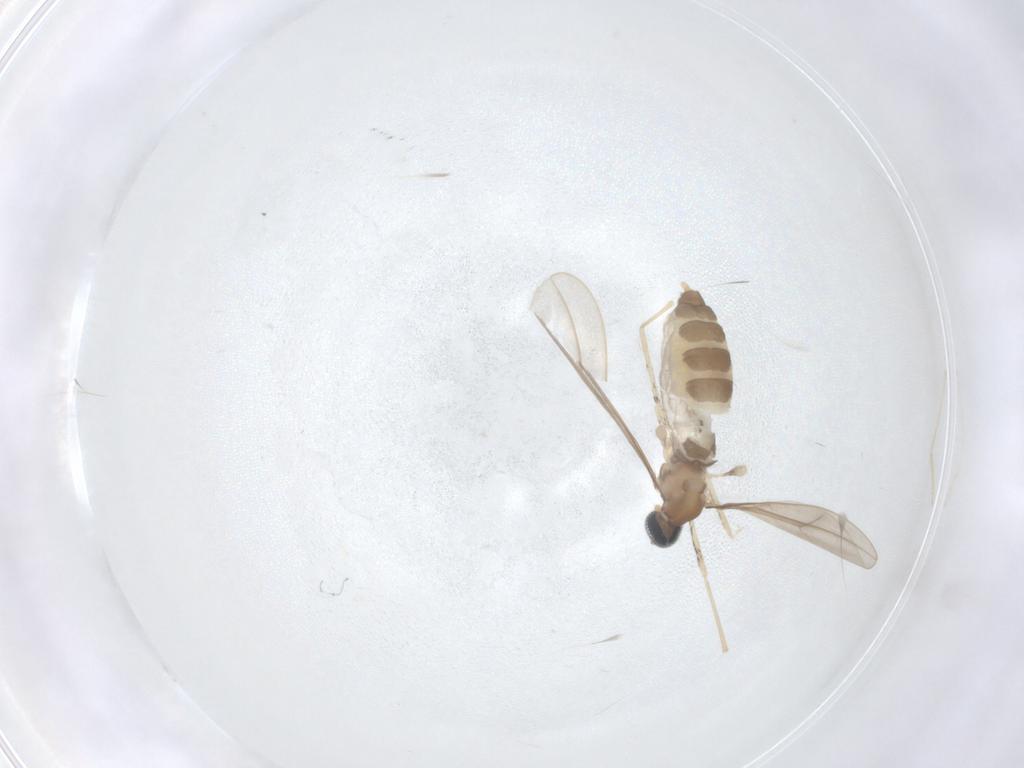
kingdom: Animalia
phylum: Arthropoda
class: Insecta
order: Diptera
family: Cecidomyiidae
